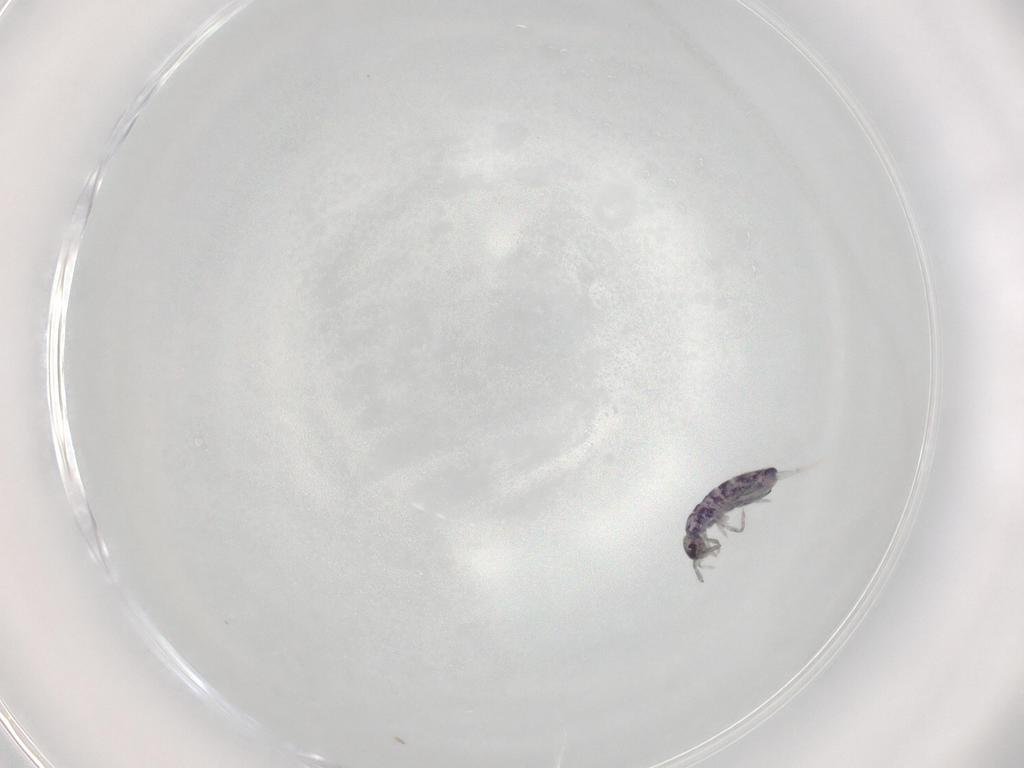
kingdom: Animalia
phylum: Arthropoda
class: Collembola
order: Entomobryomorpha
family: Entomobryidae
